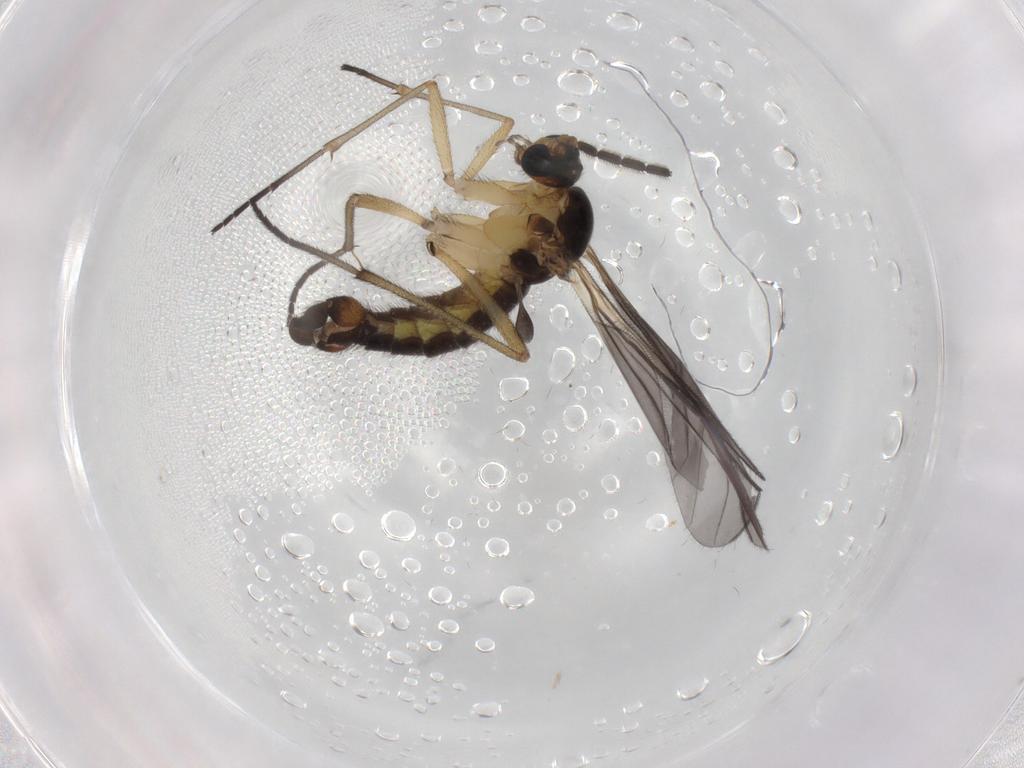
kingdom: Animalia
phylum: Arthropoda
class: Insecta
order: Diptera
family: Sciaridae
